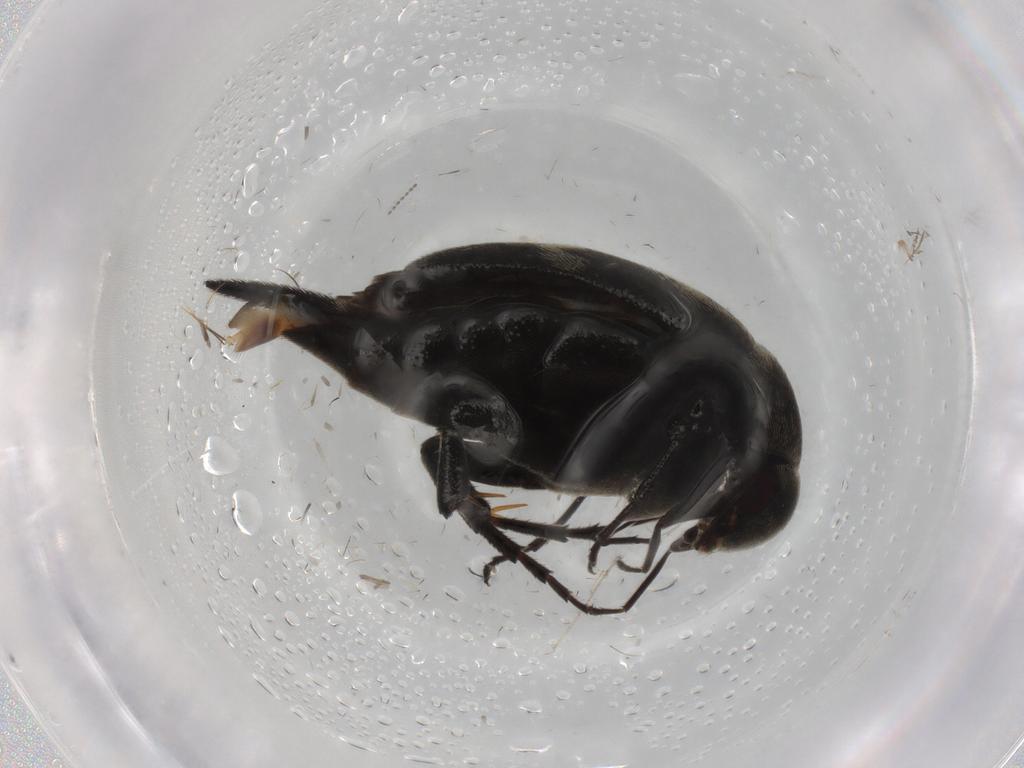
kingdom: Animalia
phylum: Arthropoda
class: Insecta
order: Coleoptera
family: Mordellidae
